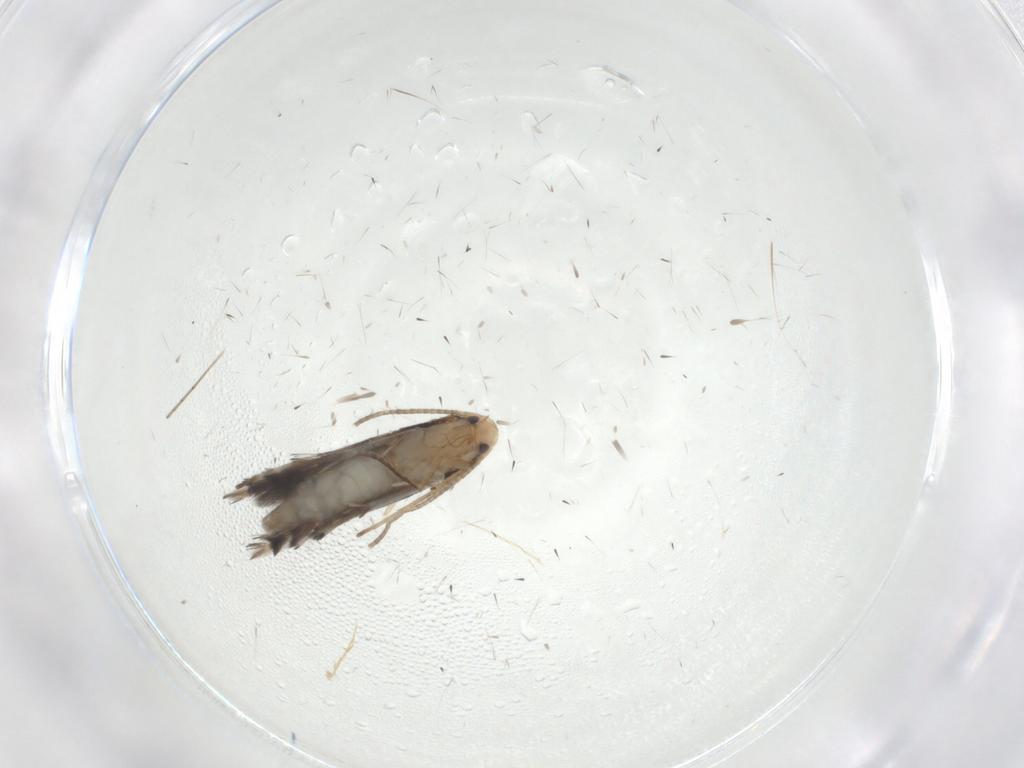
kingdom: Animalia
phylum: Arthropoda
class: Insecta
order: Lepidoptera
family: Gracillariidae
